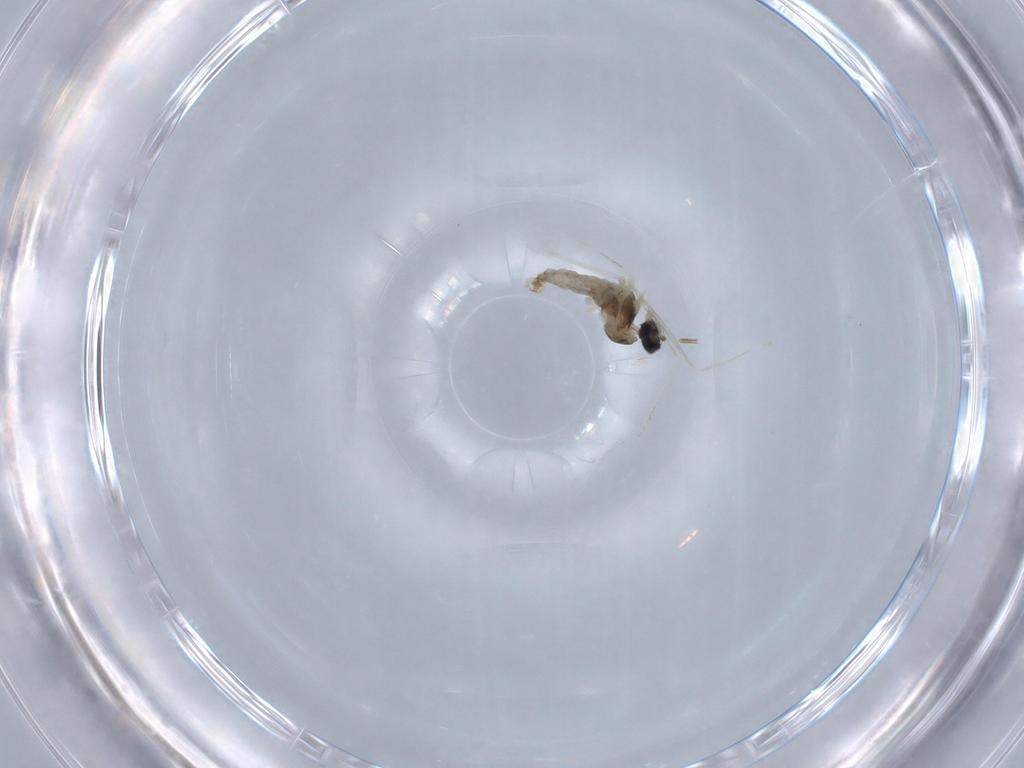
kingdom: Animalia
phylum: Arthropoda
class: Insecta
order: Diptera
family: Cecidomyiidae
